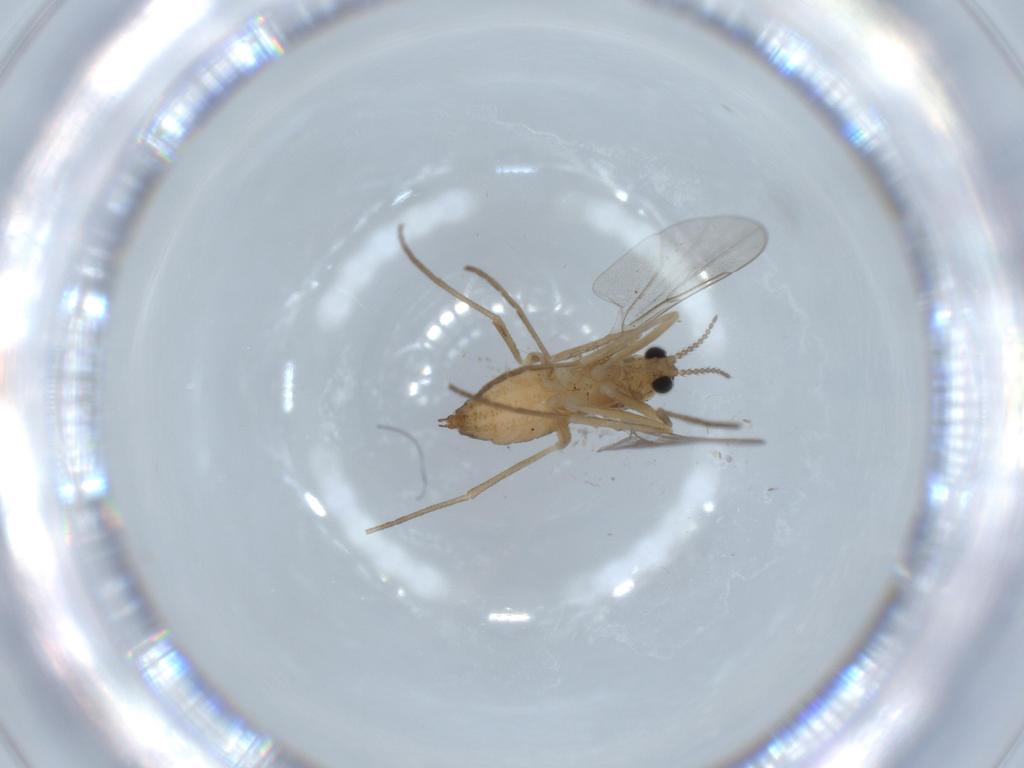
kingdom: Animalia
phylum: Arthropoda
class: Insecta
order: Diptera
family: Cecidomyiidae
